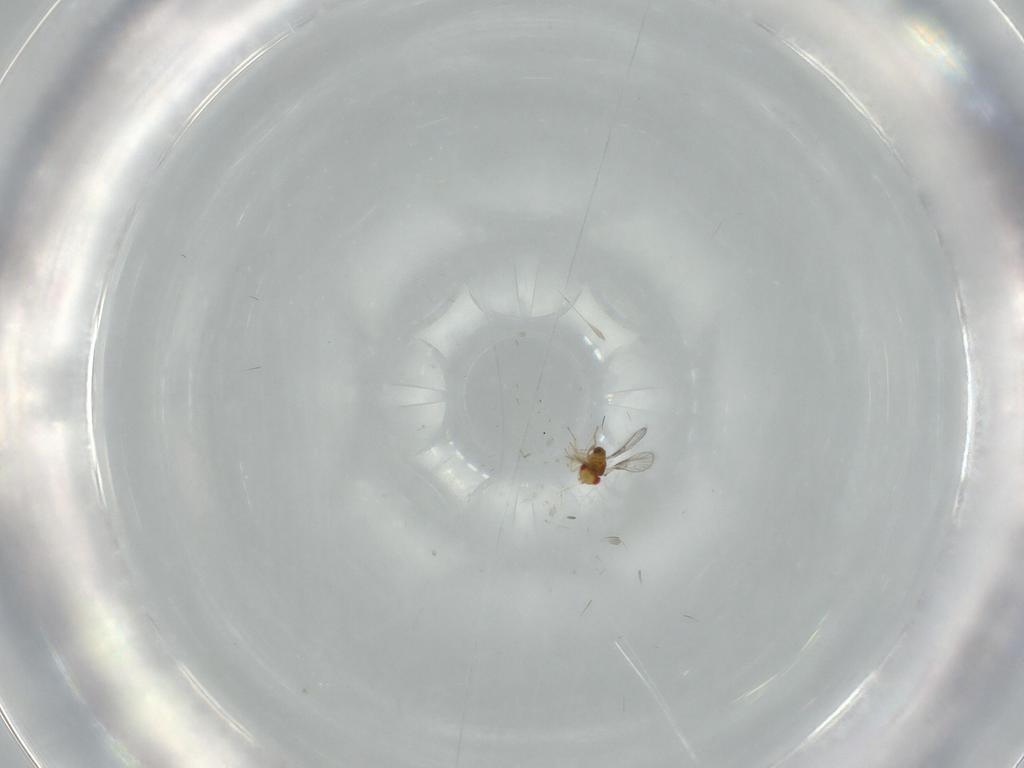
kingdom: Animalia
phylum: Arthropoda
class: Insecta
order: Hymenoptera
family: Trichogrammatidae
